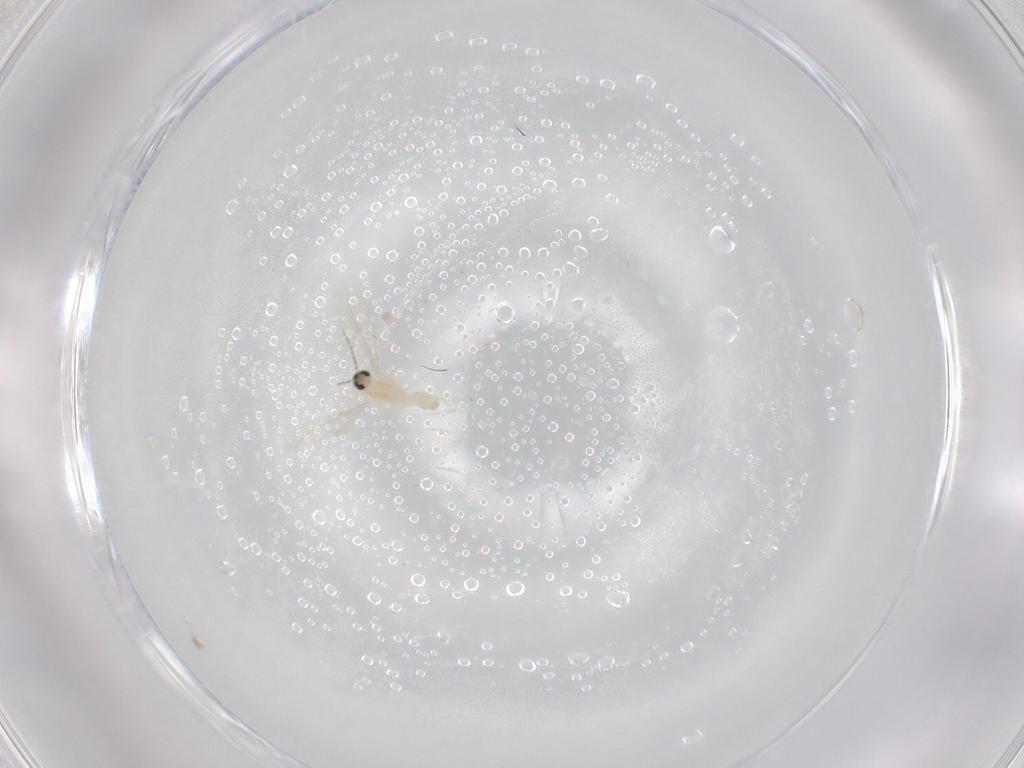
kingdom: Animalia
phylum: Arthropoda
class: Insecta
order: Diptera
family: Cecidomyiidae
